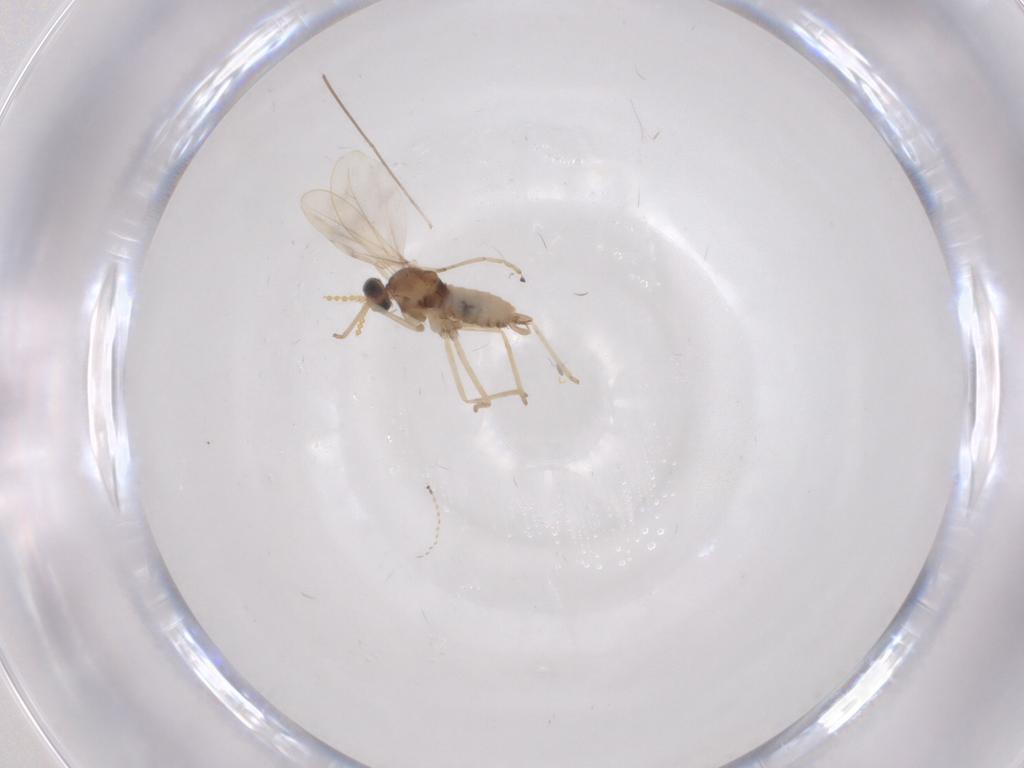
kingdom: Animalia
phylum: Arthropoda
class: Insecta
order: Diptera
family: Cecidomyiidae
